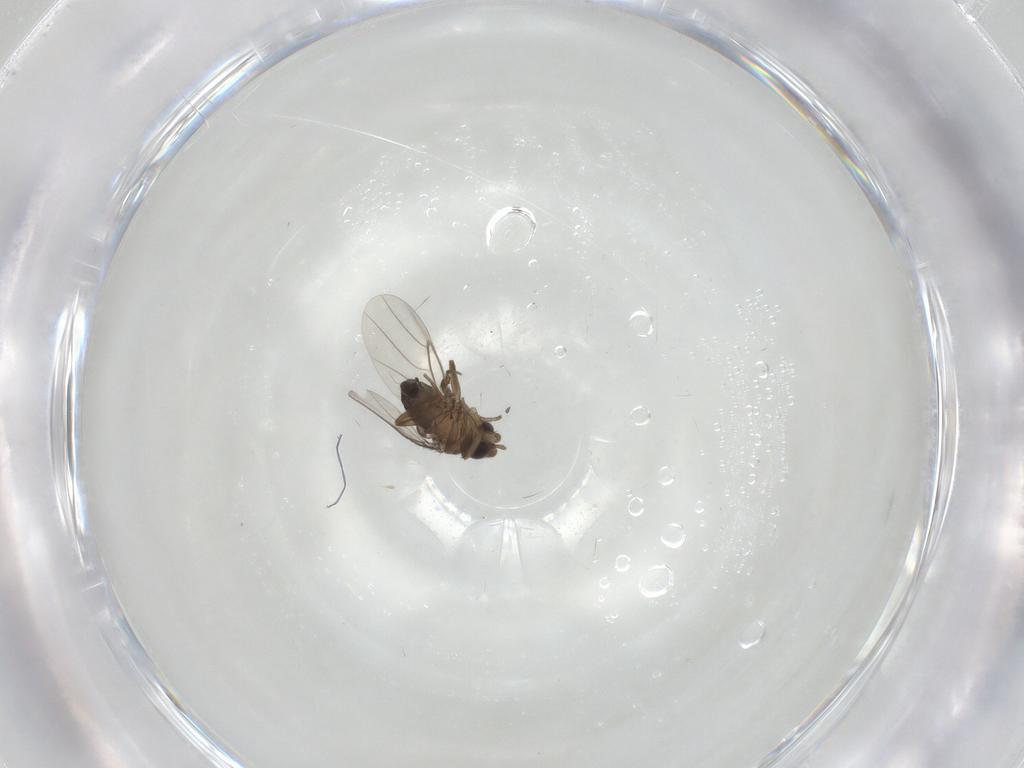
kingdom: Animalia
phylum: Arthropoda
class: Insecta
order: Diptera
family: Phoridae
